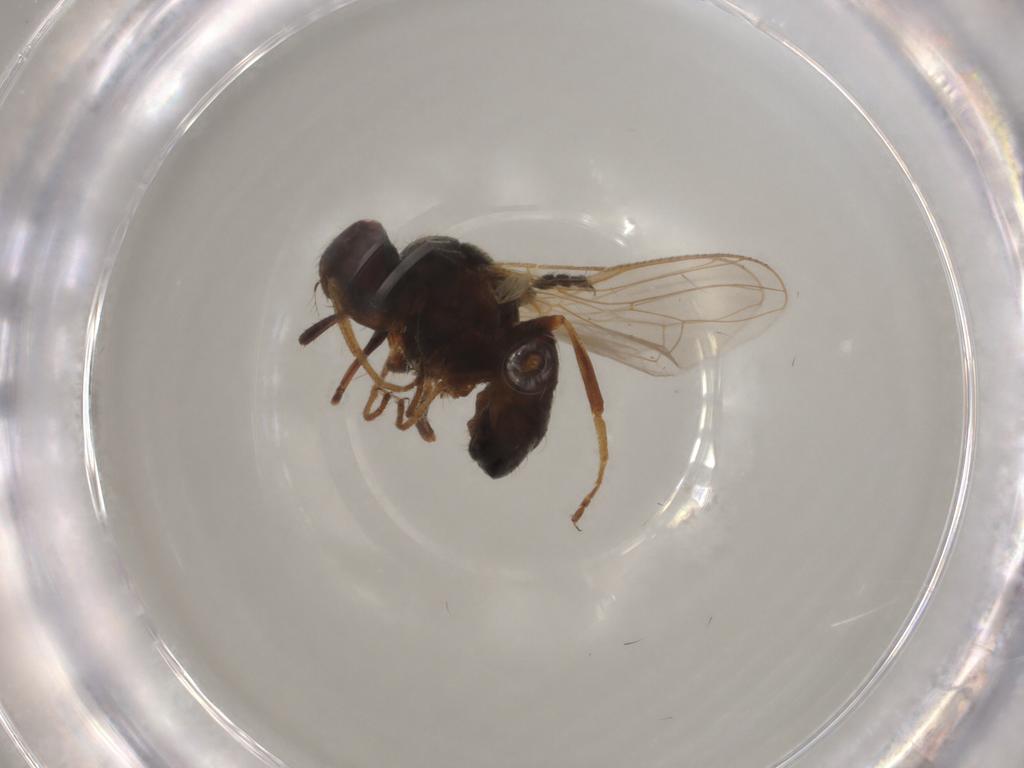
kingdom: Animalia
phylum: Arthropoda
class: Insecta
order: Diptera
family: Muscidae
